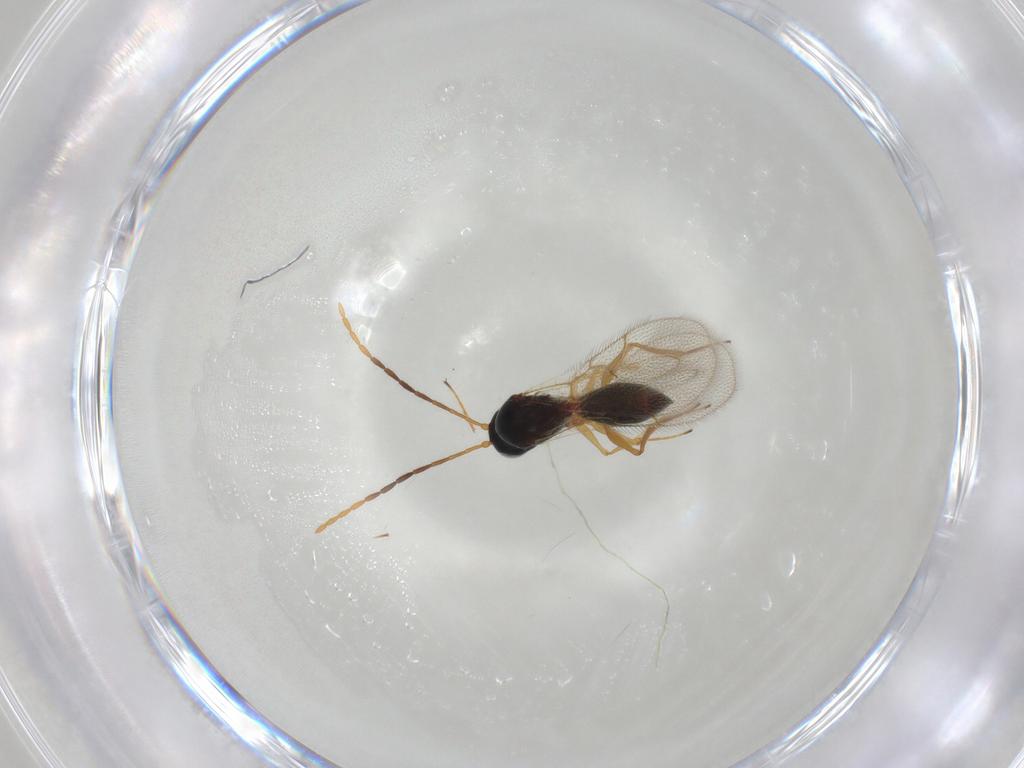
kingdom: Animalia
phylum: Arthropoda
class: Insecta
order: Hymenoptera
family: Figitidae
